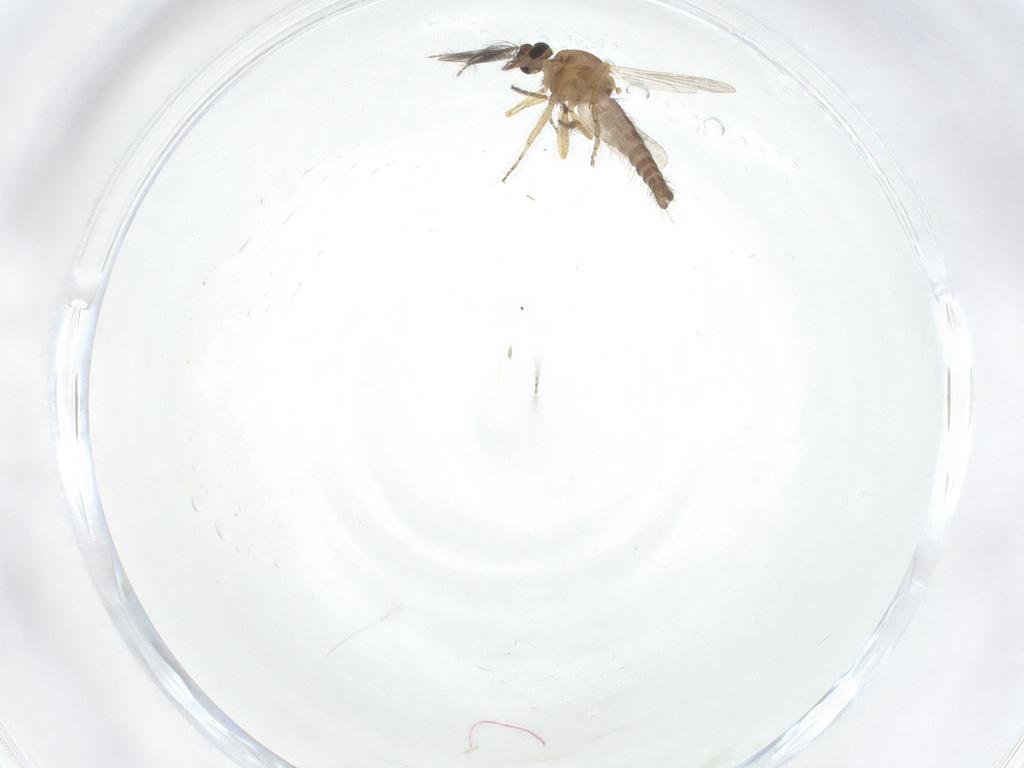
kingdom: Animalia
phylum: Arthropoda
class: Insecta
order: Diptera
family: Ceratopogonidae
